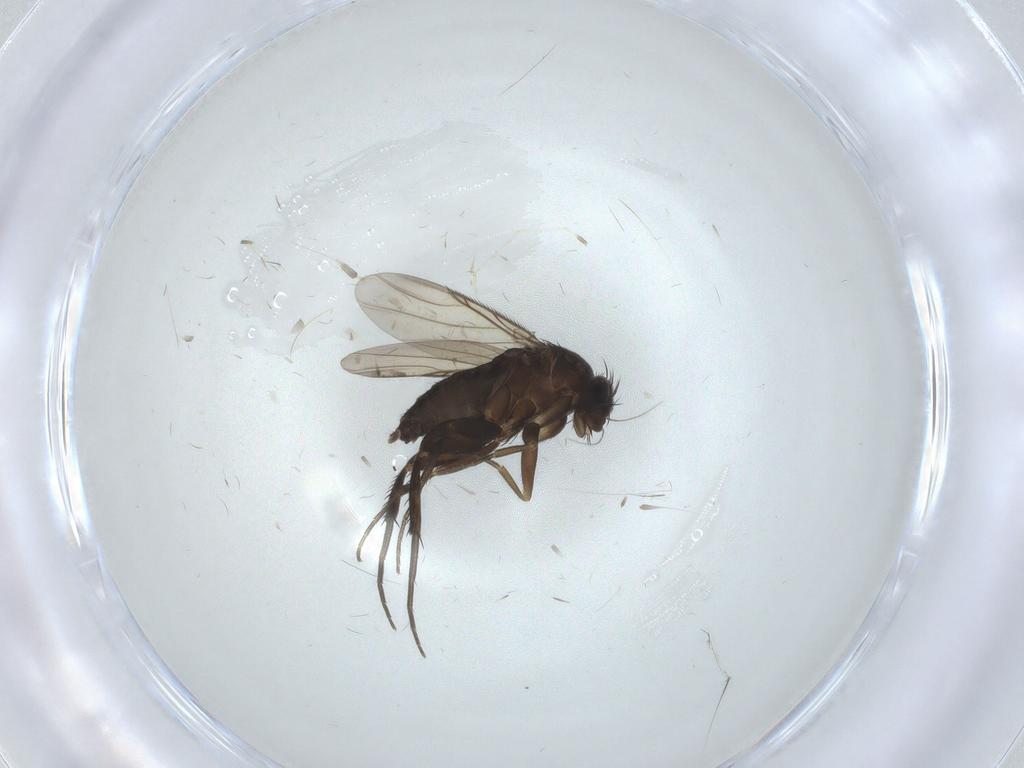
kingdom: Animalia
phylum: Arthropoda
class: Insecta
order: Diptera
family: Phoridae
